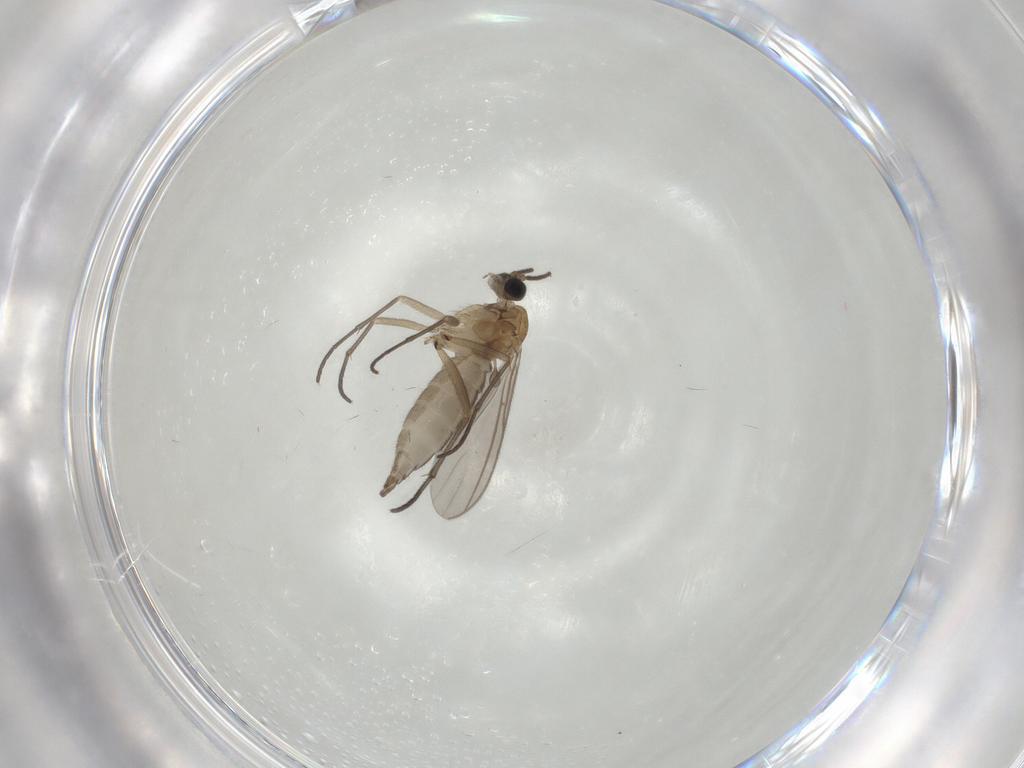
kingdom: Animalia
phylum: Arthropoda
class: Insecta
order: Diptera
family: Sciaridae
